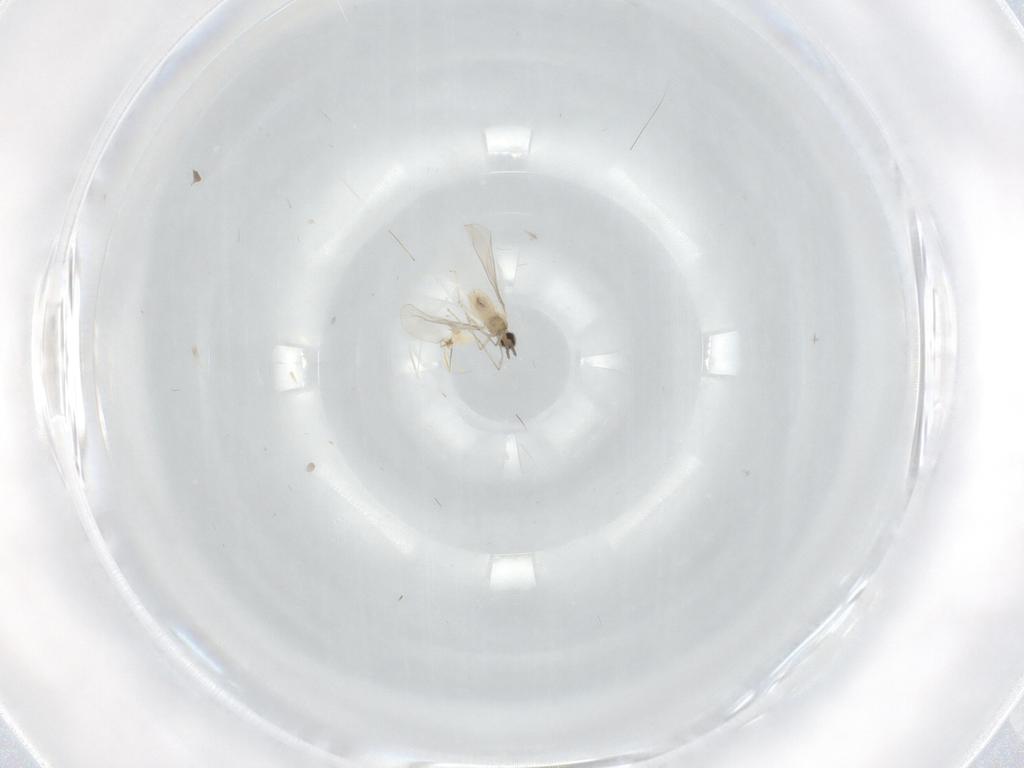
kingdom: Animalia
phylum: Arthropoda
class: Insecta
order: Diptera
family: Cecidomyiidae
